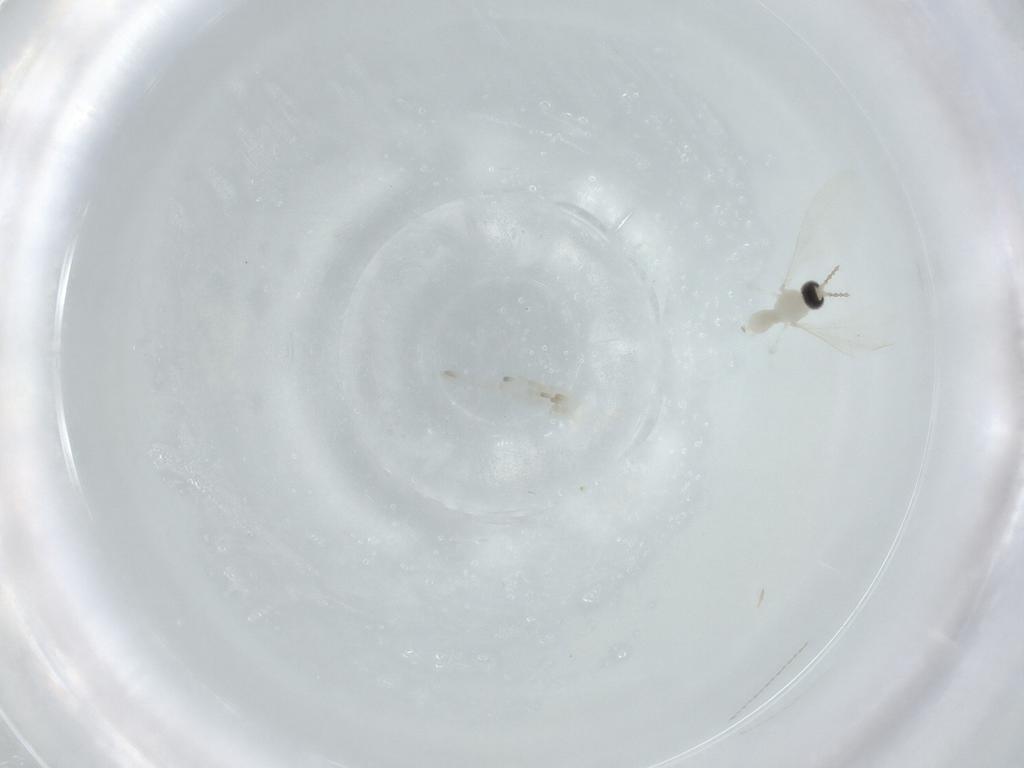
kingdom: Animalia
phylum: Arthropoda
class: Insecta
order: Diptera
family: Cecidomyiidae
